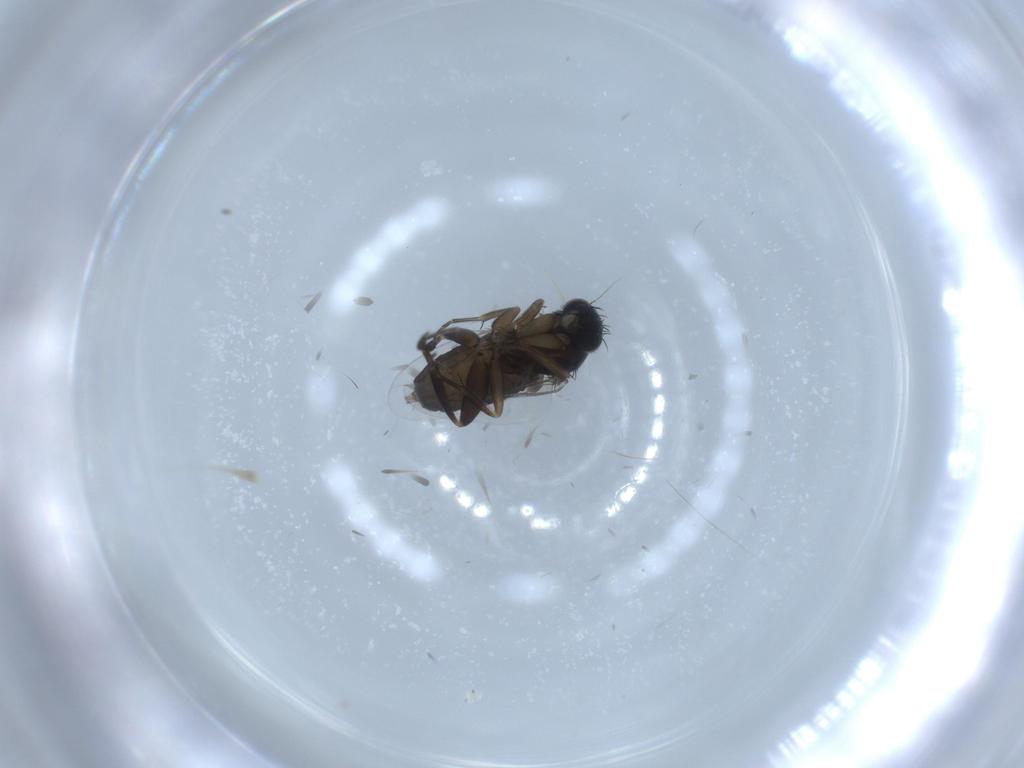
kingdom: Animalia
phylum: Arthropoda
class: Insecta
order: Diptera
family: Phoridae
